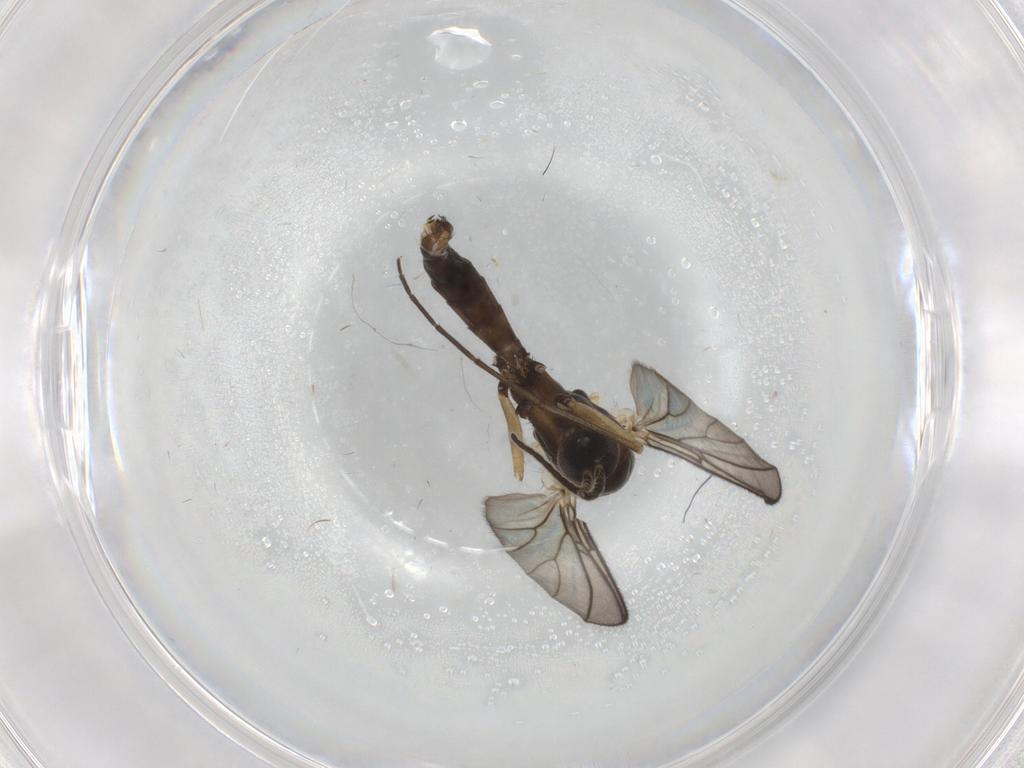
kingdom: Animalia
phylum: Arthropoda
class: Insecta
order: Diptera
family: Mycetophilidae
